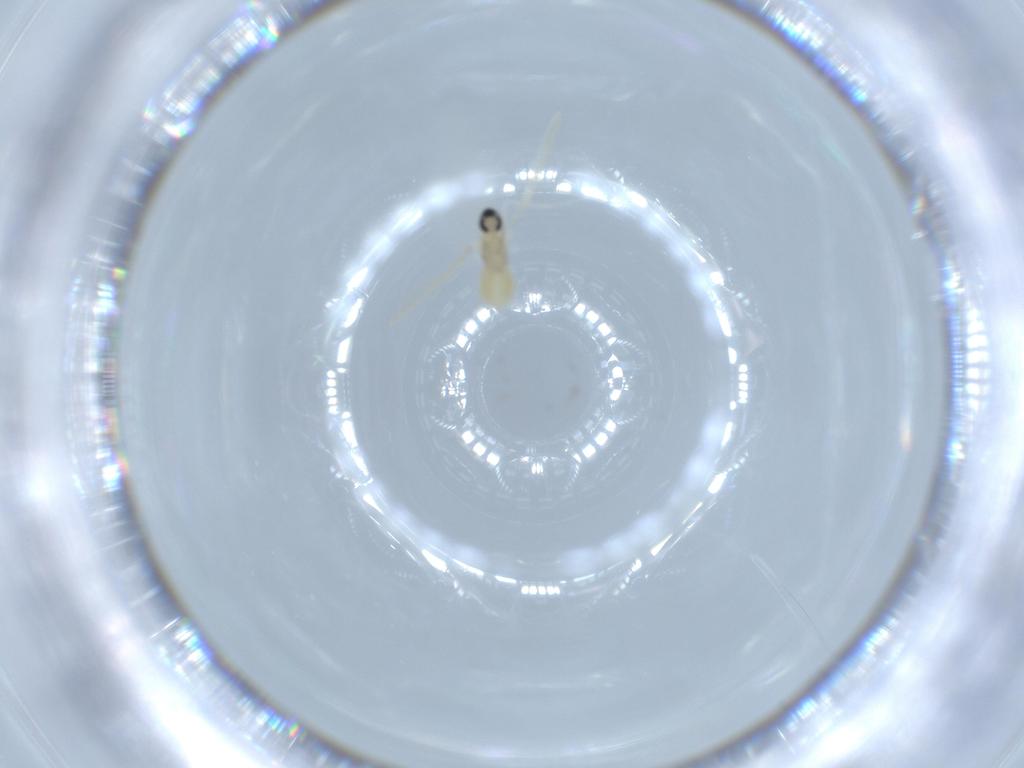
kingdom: Animalia
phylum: Arthropoda
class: Insecta
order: Diptera
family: Cecidomyiidae
